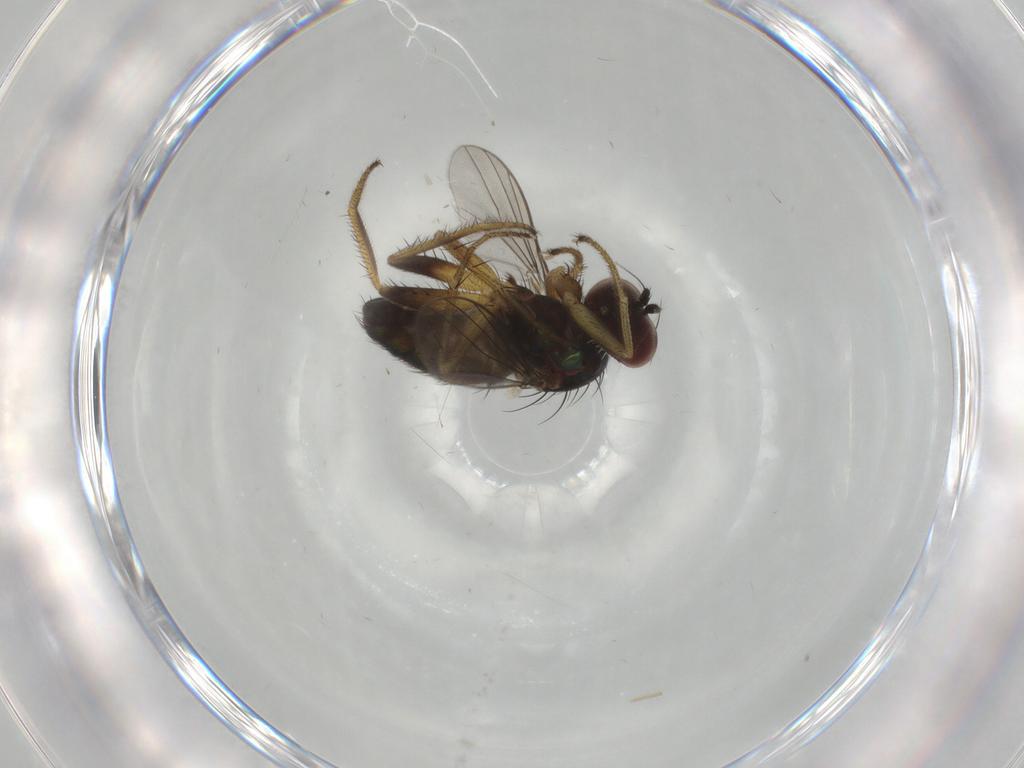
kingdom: Animalia
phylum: Arthropoda
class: Insecta
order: Diptera
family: Dolichopodidae
